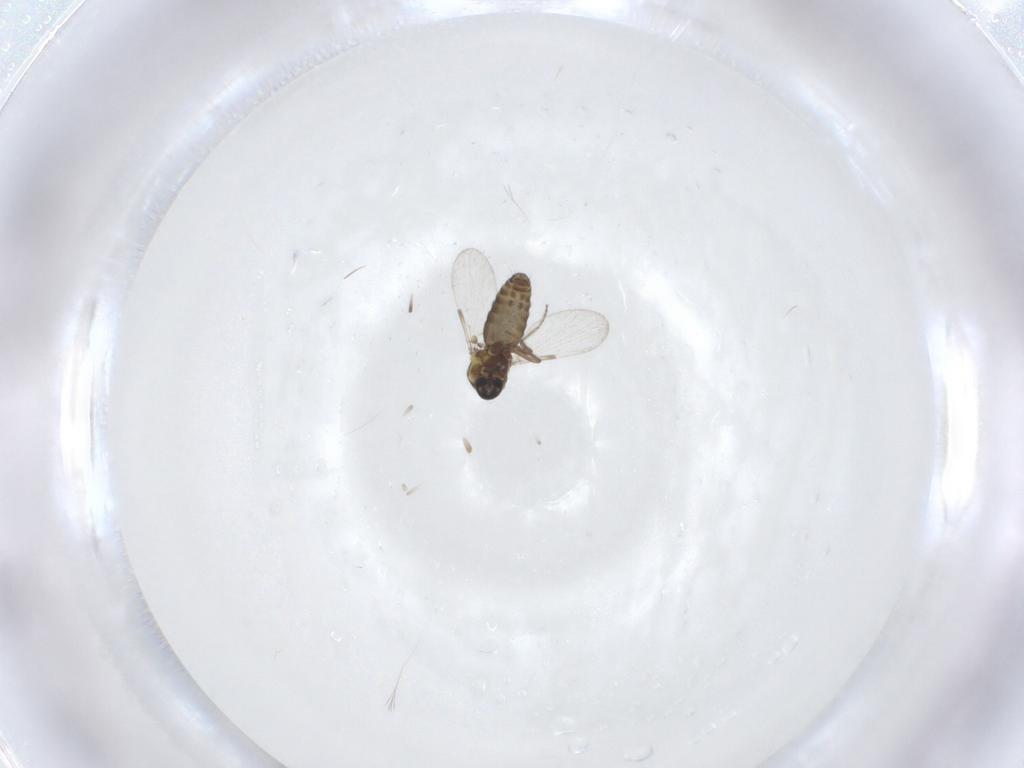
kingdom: Animalia
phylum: Arthropoda
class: Insecta
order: Diptera
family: Ceratopogonidae
